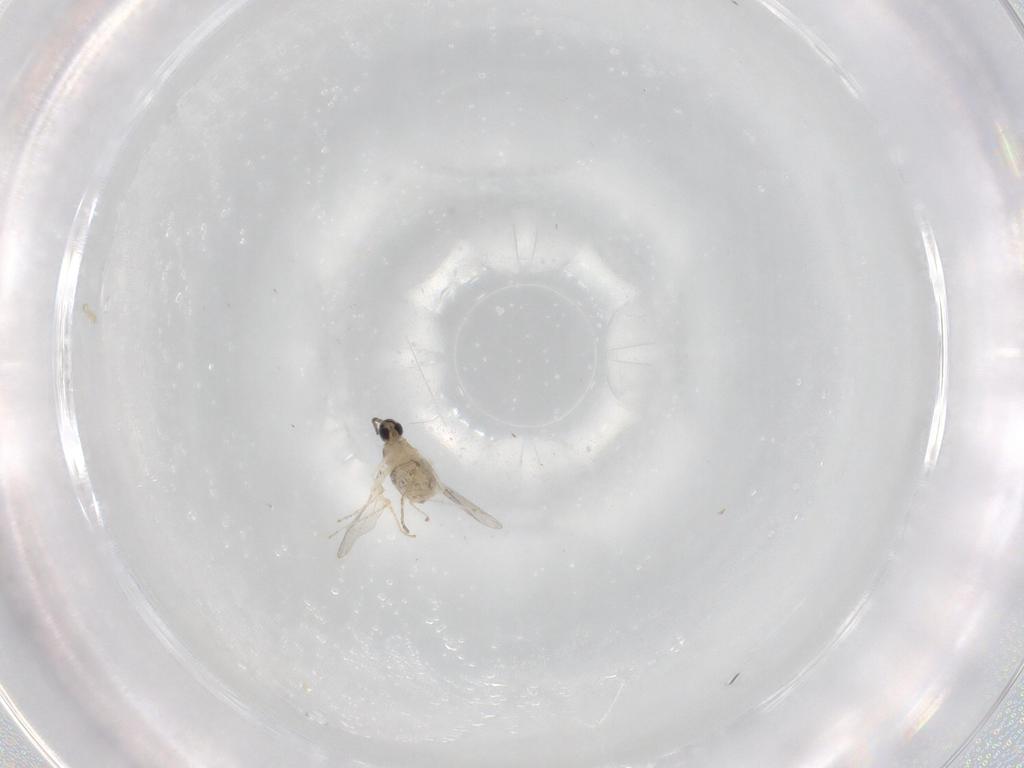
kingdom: Animalia
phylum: Arthropoda
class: Insecta
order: Diptera
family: Cecidomyiidae
